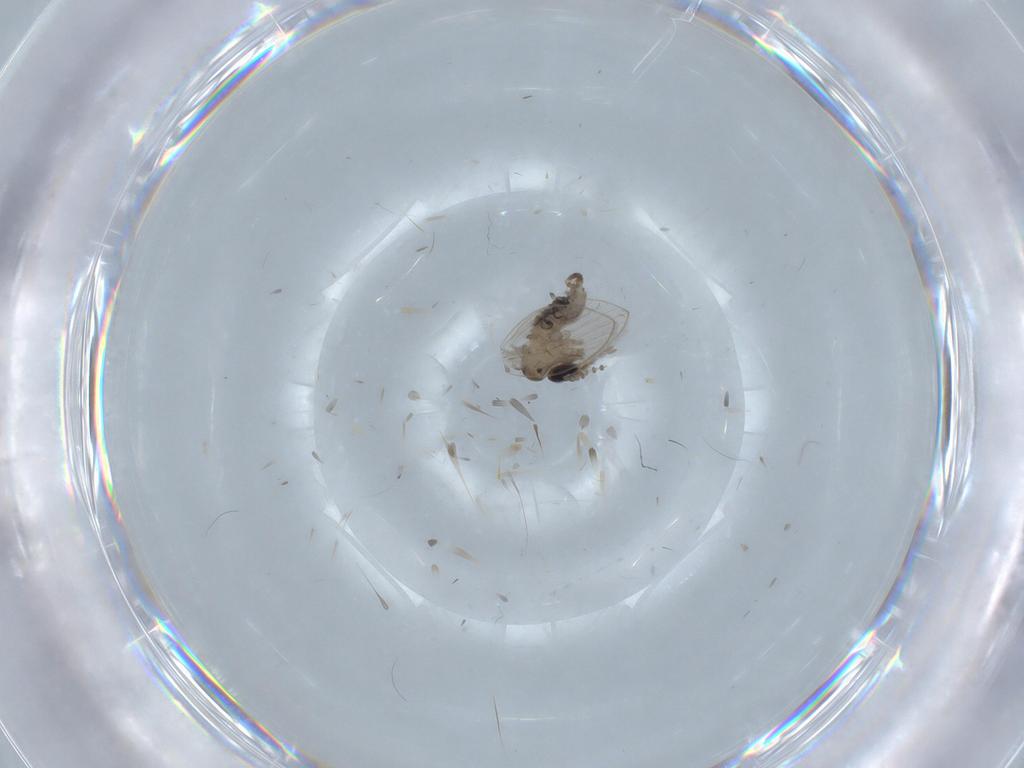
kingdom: Animalia
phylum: Arthropoda
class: Insecta
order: Diptera
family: Psychodidae
